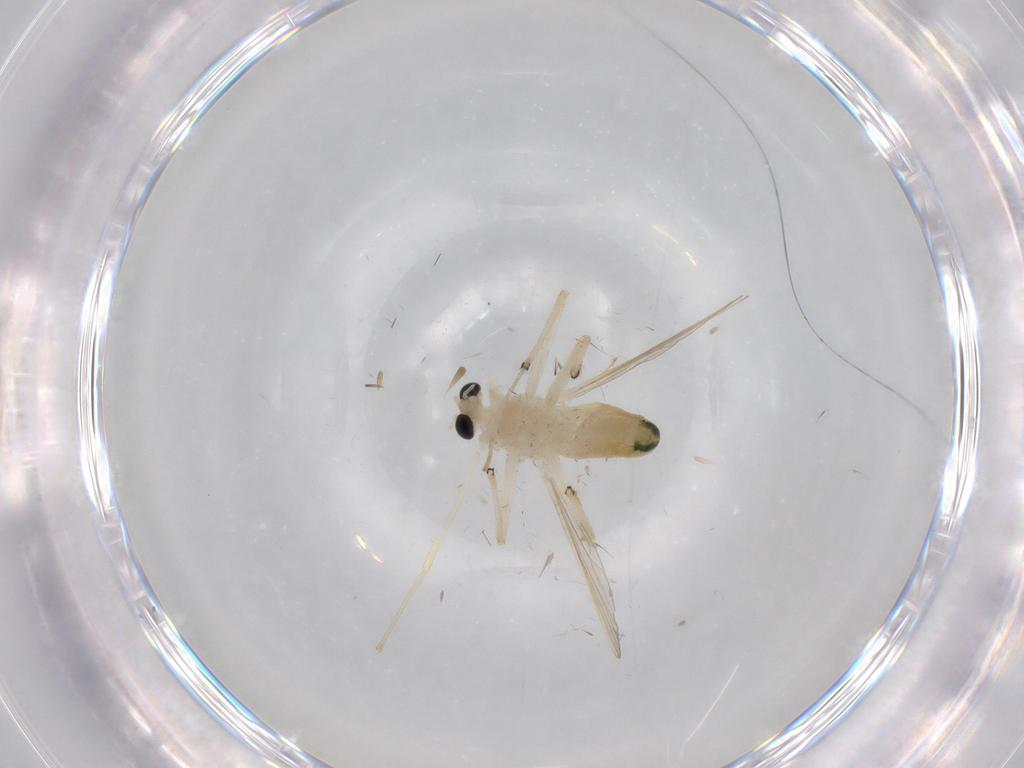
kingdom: Animalia
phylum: Arthropoda
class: Insecta
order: Diptera
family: Chironomidae
